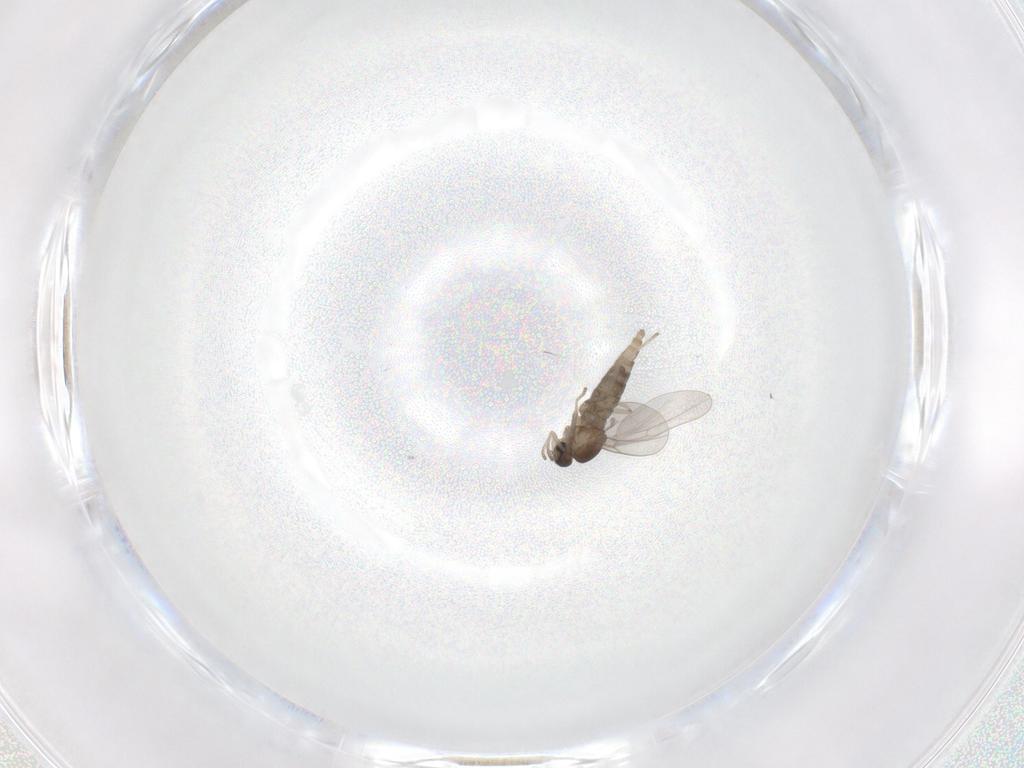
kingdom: Animalia
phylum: Arthropoda
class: Insecta
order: Diptera
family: Cecidomyiidae
